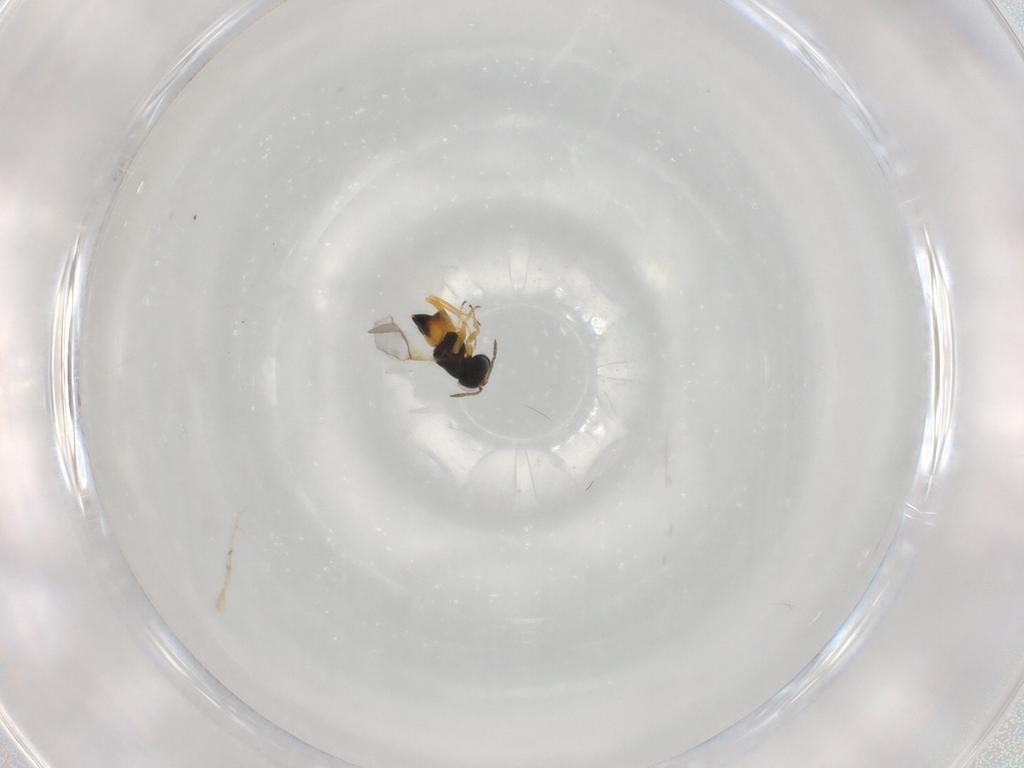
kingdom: Animalia
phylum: Arthropoda
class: Insecta
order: Hymenoptera
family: Encyrtidae
